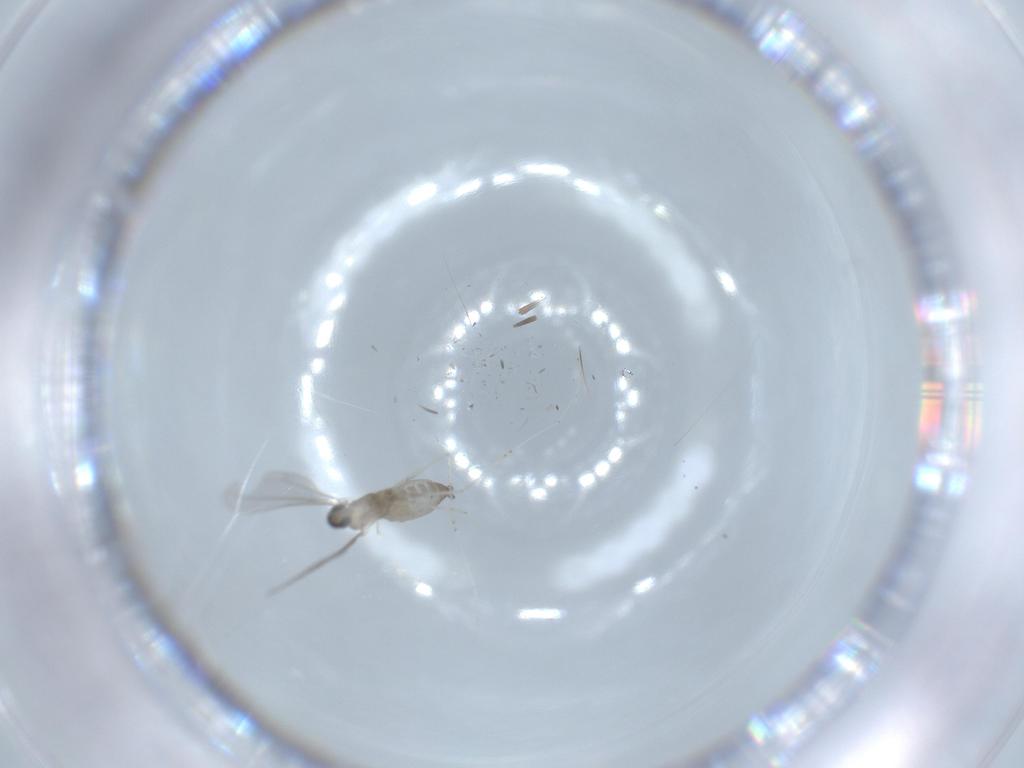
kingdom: Animalia
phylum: Arthropoda
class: Insecta
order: Diptera
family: Cecidomyiidae
